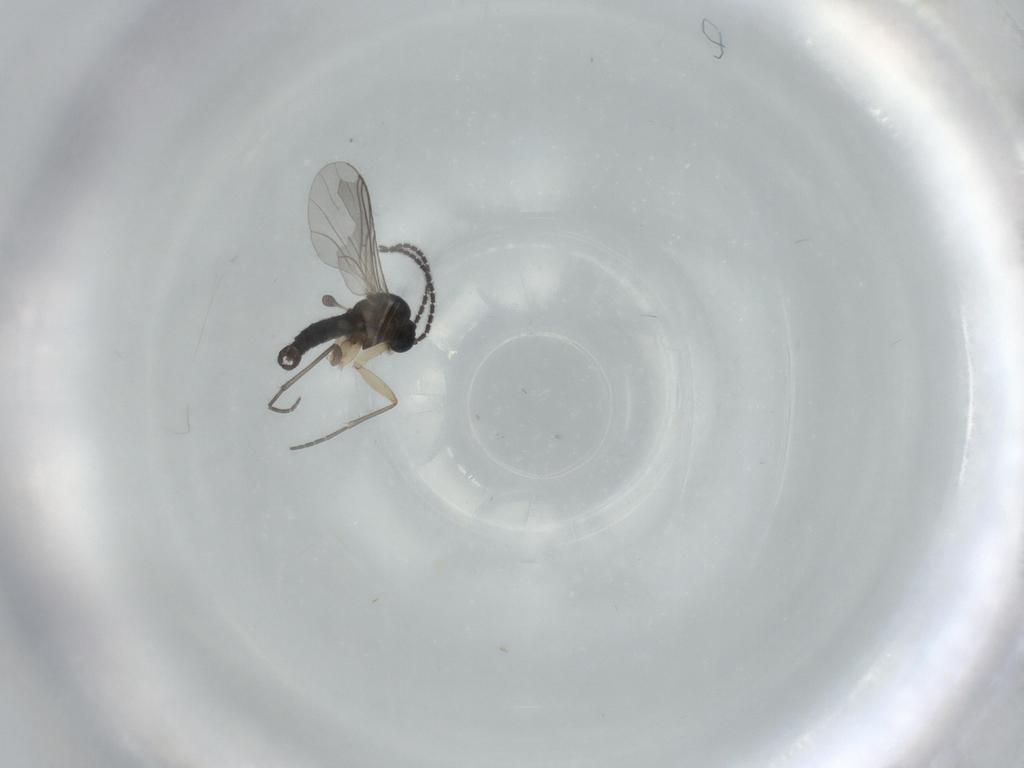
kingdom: Animalia
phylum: Arthropoda
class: Insecta
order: Diptera
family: Sciaridae
